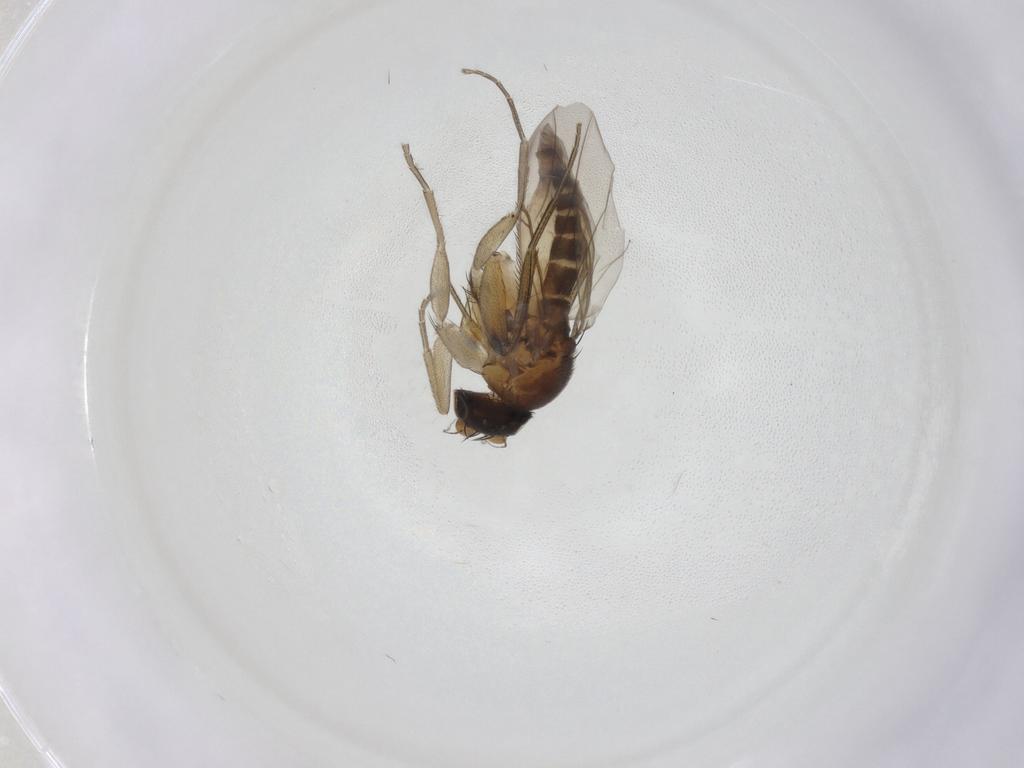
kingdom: Animalia
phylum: Arthropoda
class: Insecta
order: Diptera
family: Phoridae
